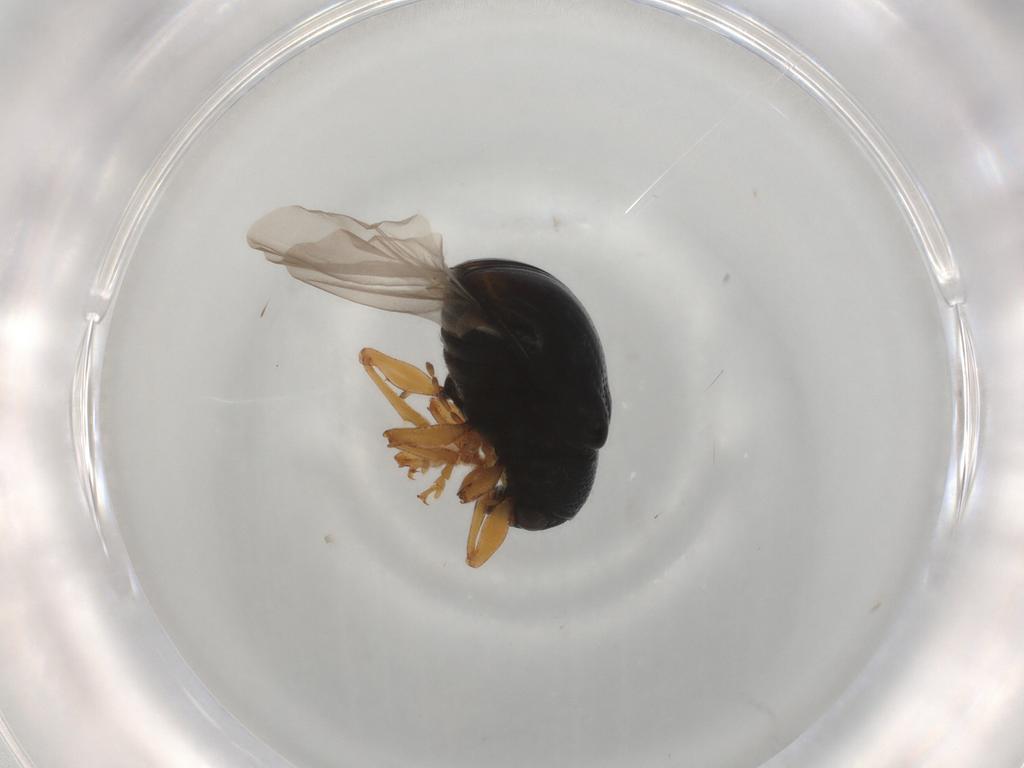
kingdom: Animalia
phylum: Arthropoda
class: Insecta
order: Coleoptera
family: Chrysomelidae
